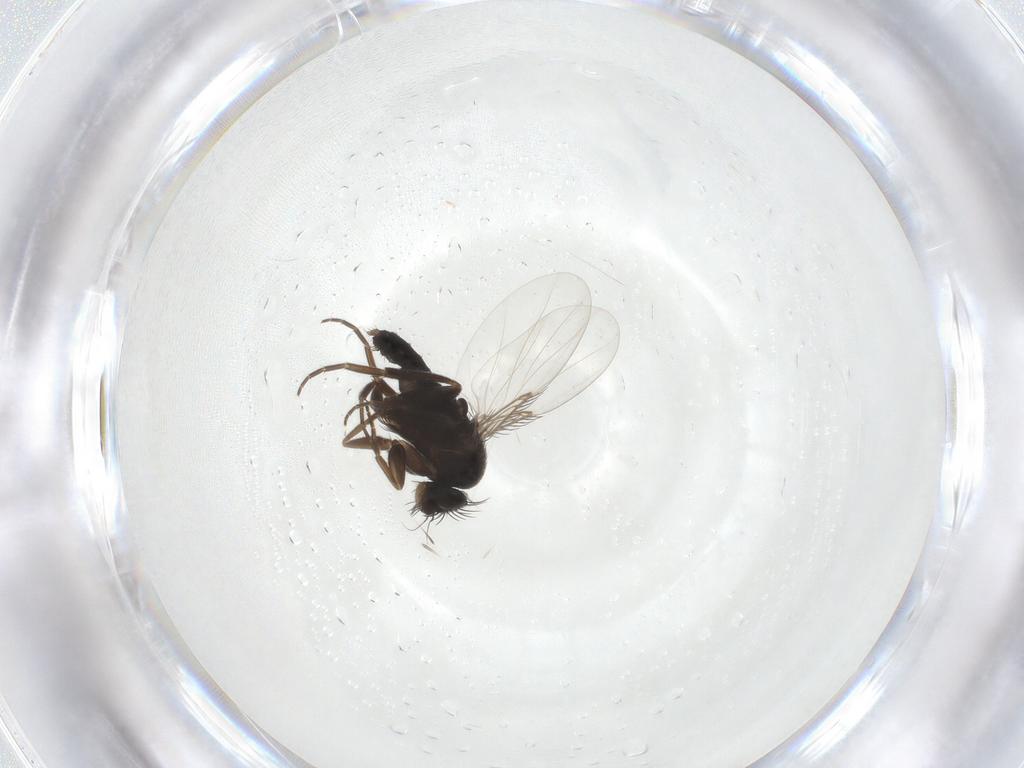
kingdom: Animalia
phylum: Arthropoda
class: Insecta
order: Diptera
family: Phoridae
